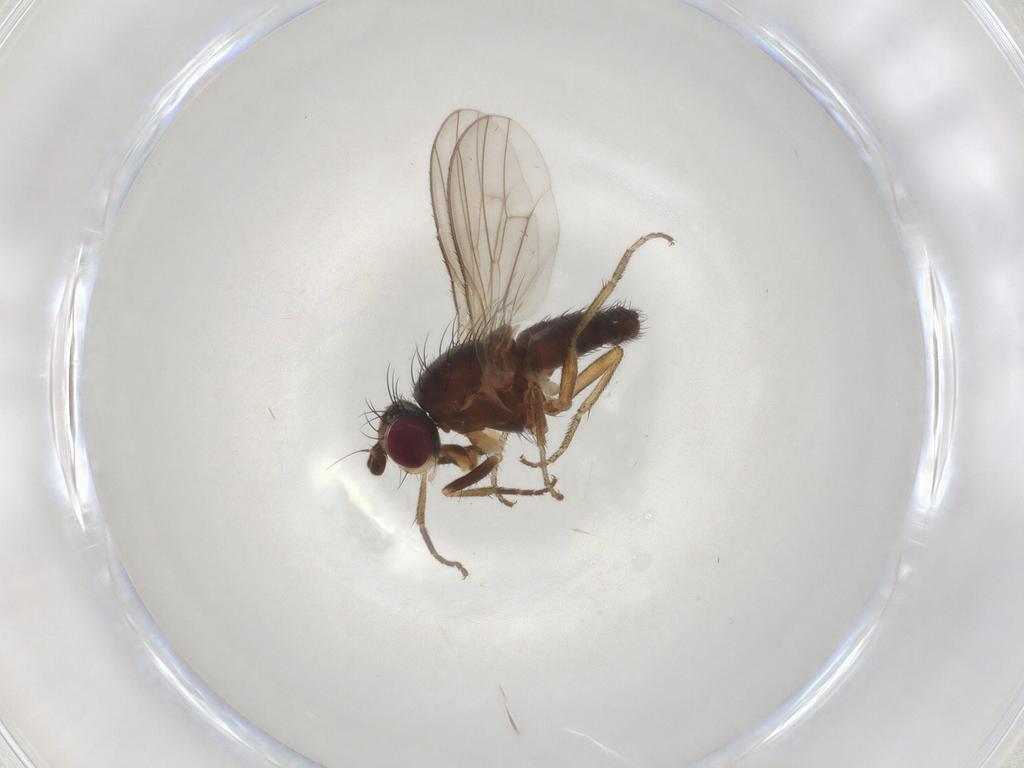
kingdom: Animalia
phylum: Arthropoda
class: Insecta
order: Diptera
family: Heleomyzidae
